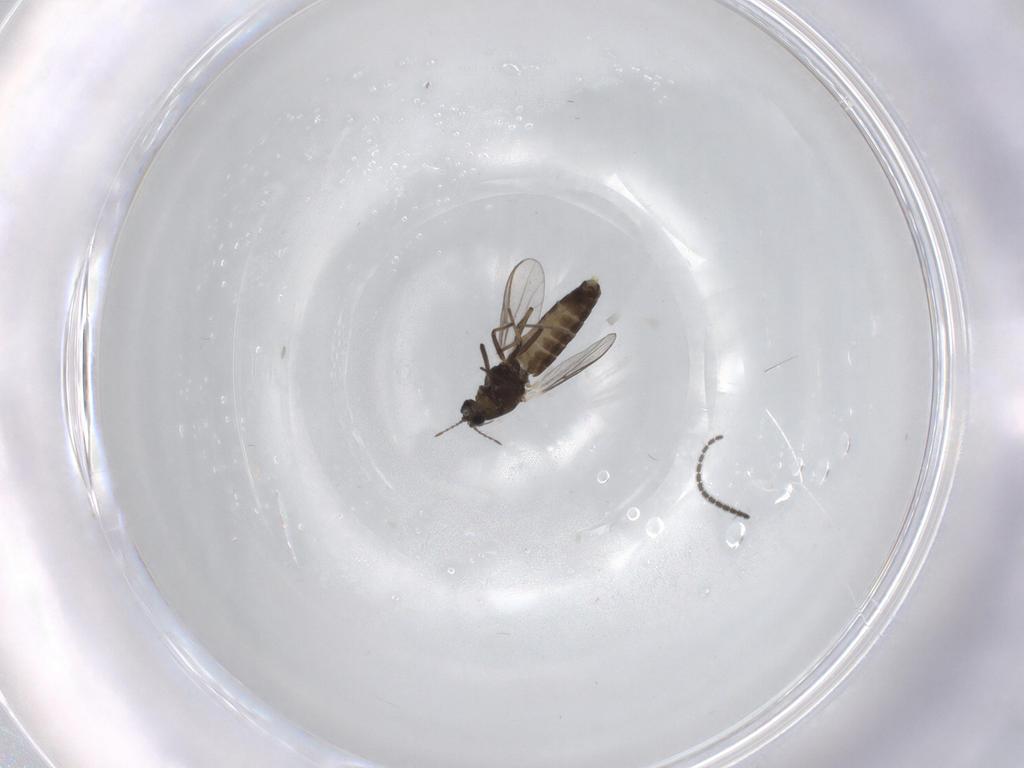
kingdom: Animalia
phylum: Arthropoda
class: Insecta
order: Diptera
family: Chironomidae
